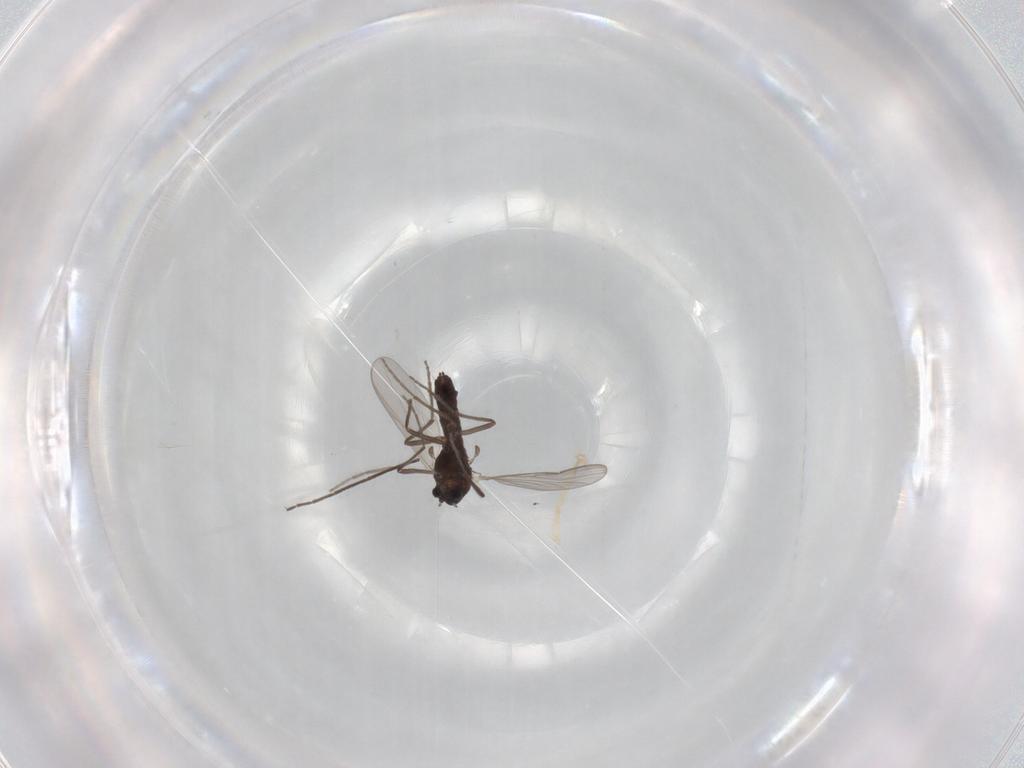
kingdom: Animalia
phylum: Arthropoda
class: Insecta
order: Diptera
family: Chironomidae
